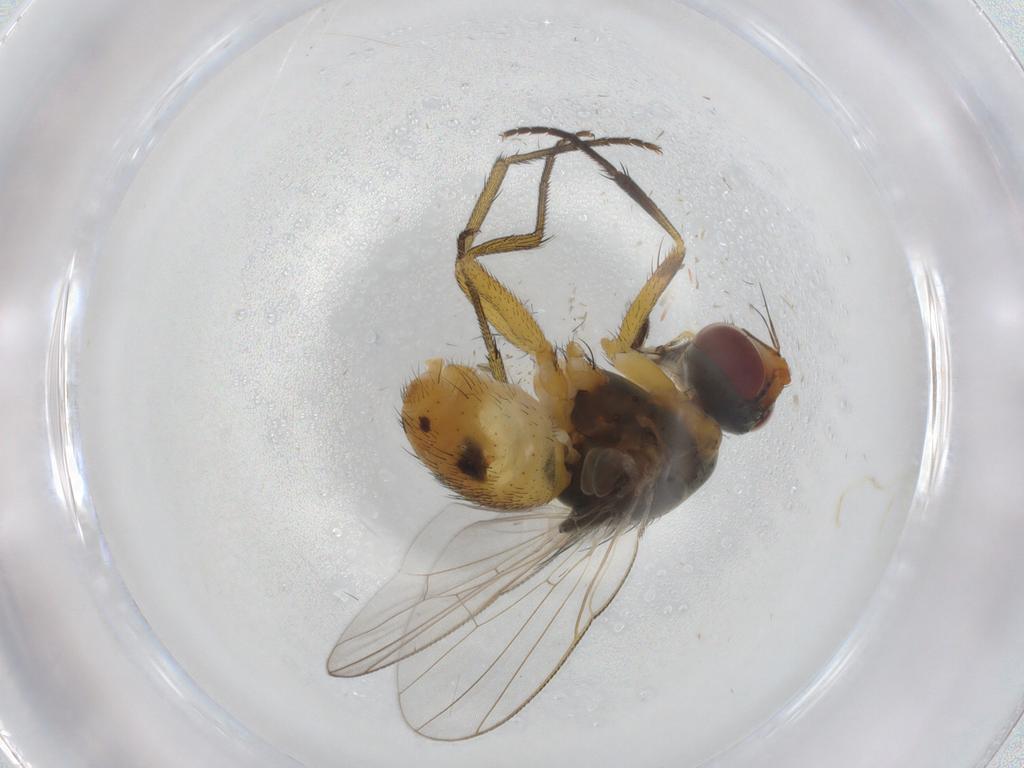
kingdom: Animalia
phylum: Arthropoda
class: Insecta
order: Diptera
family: Muscidae
